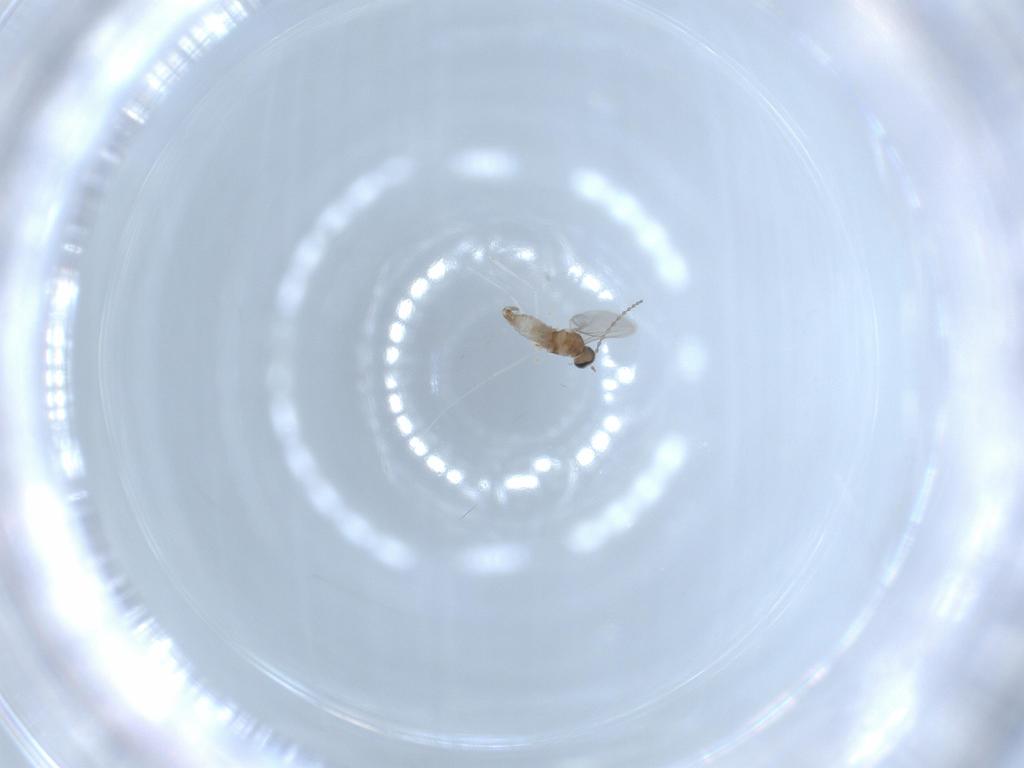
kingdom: Animalia
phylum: Arthropoda
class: Insecta
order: Diptera
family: Cecidomyiidae
